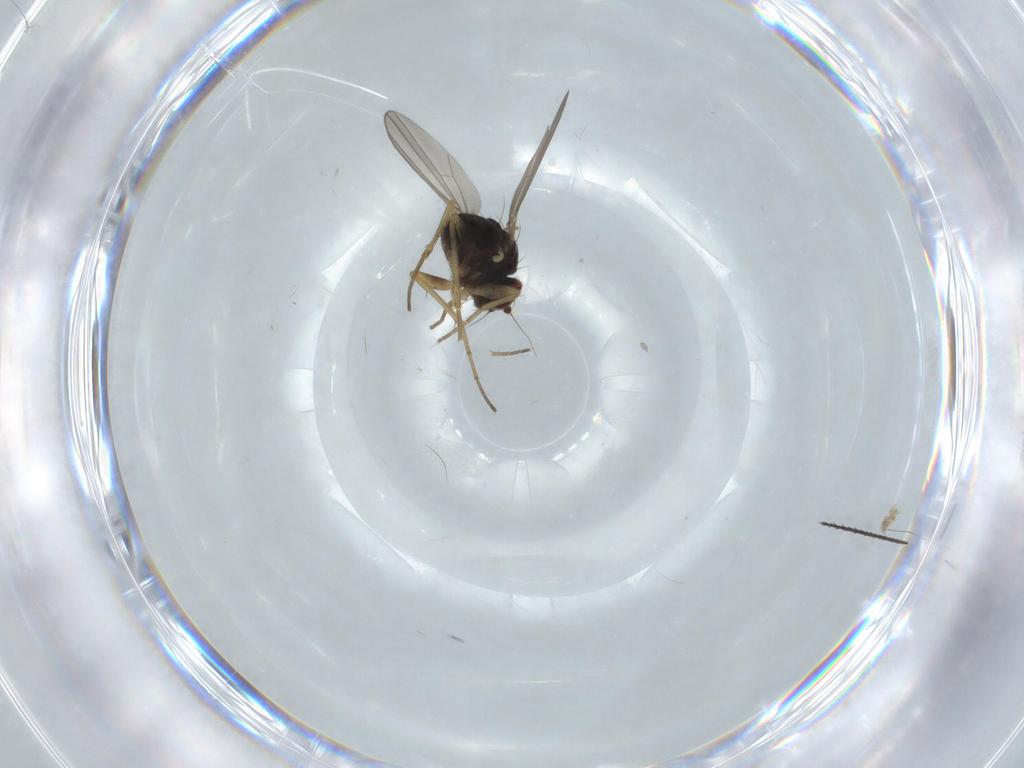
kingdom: Animalia
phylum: Arthropoda
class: Insecta
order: Diptera
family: Dolichopodidae
